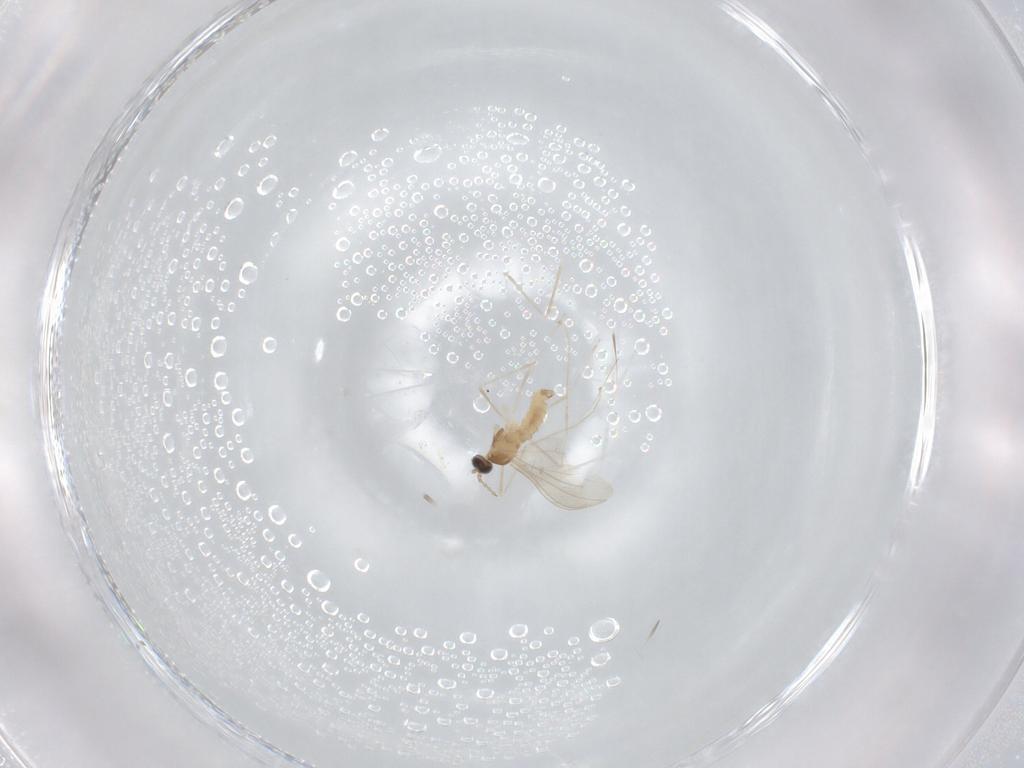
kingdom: Animalia
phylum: Arthropoda
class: Insecta
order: Diptera
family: Cecidomyiidae
